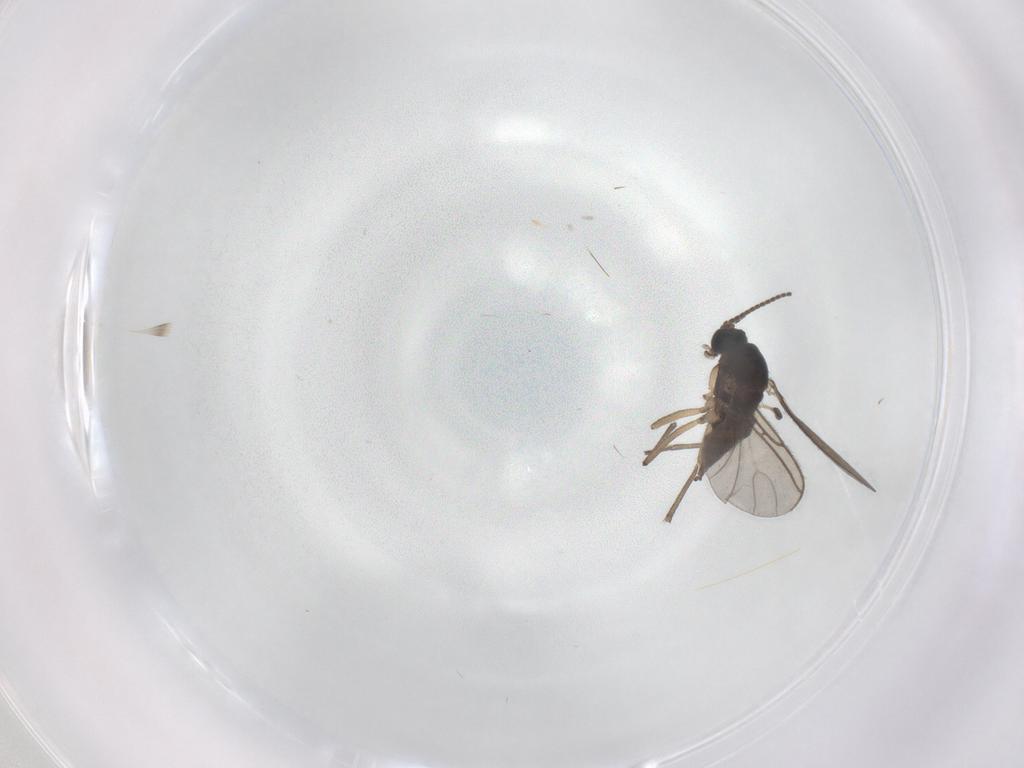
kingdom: Animalia
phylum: Arthropoda
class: Insecta
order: Diptera
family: Sciaridae
